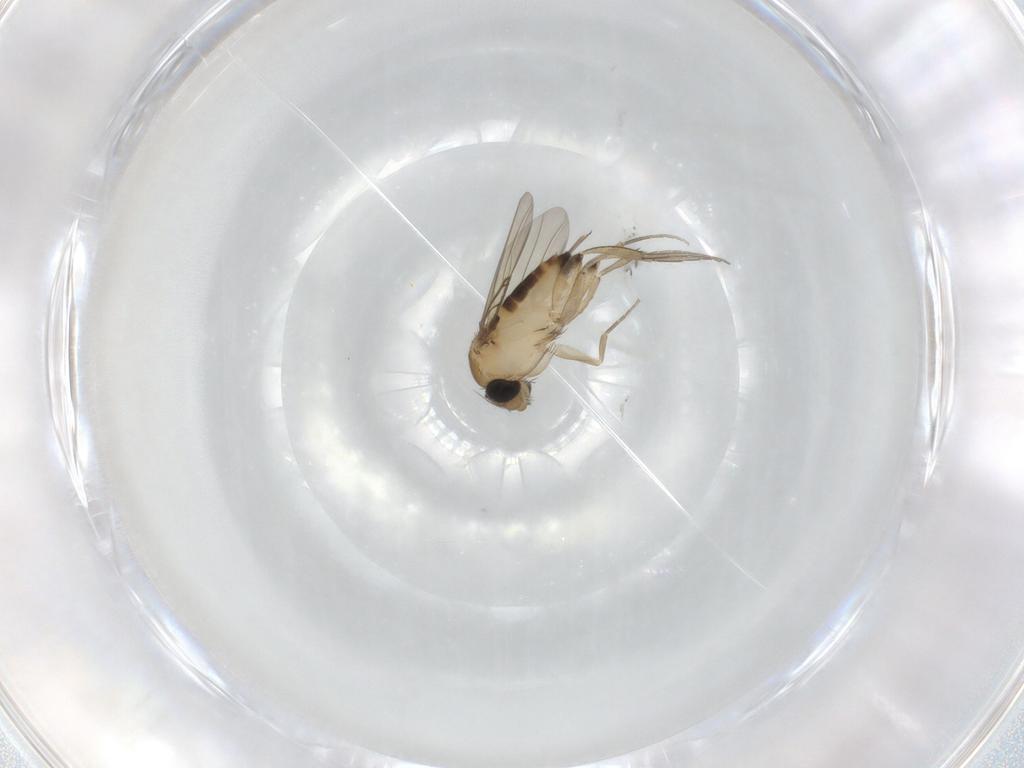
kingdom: Animalia
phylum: Arthropoda
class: Insecta
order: Diptera
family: Phoridae
